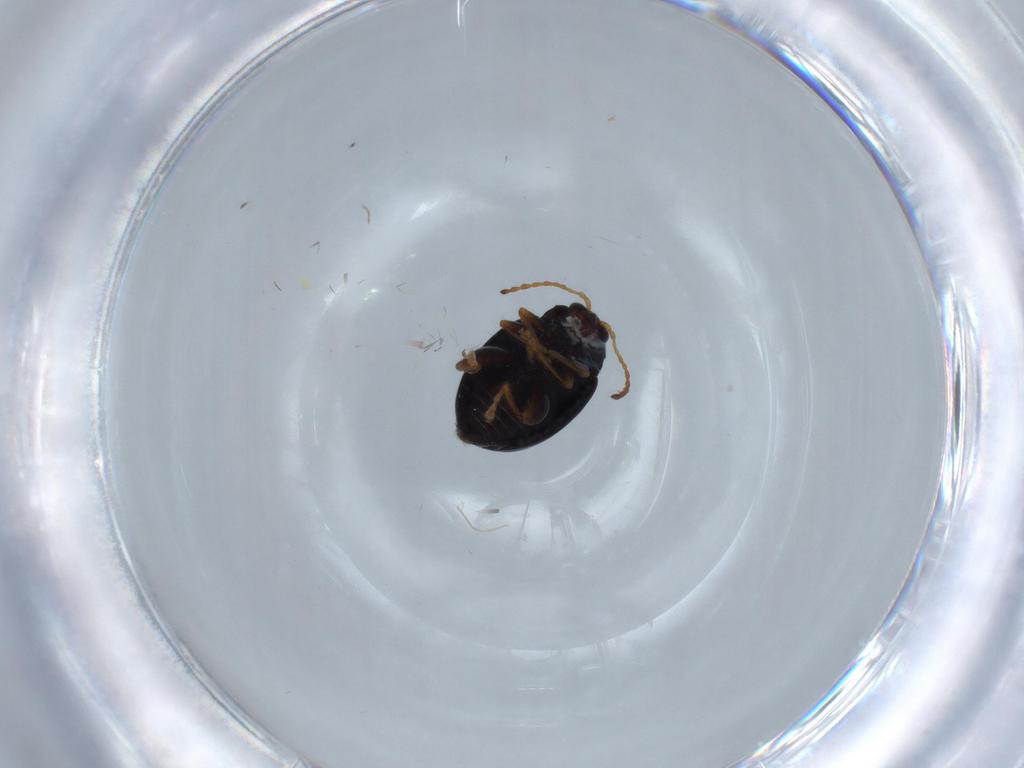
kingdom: Animalia
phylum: Arthropoda
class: Insecta
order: Coleoptera
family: Chrysomelidae
